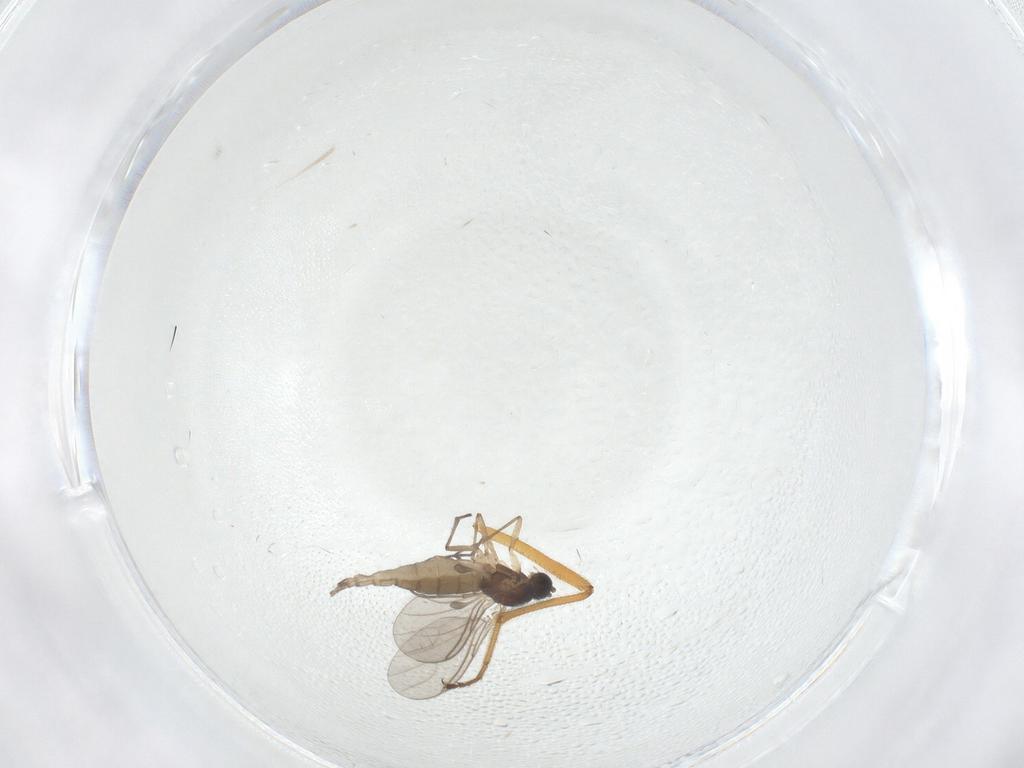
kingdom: Animalia
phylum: Arthropoda
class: Insecta
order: Diptera
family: Sciaridae
